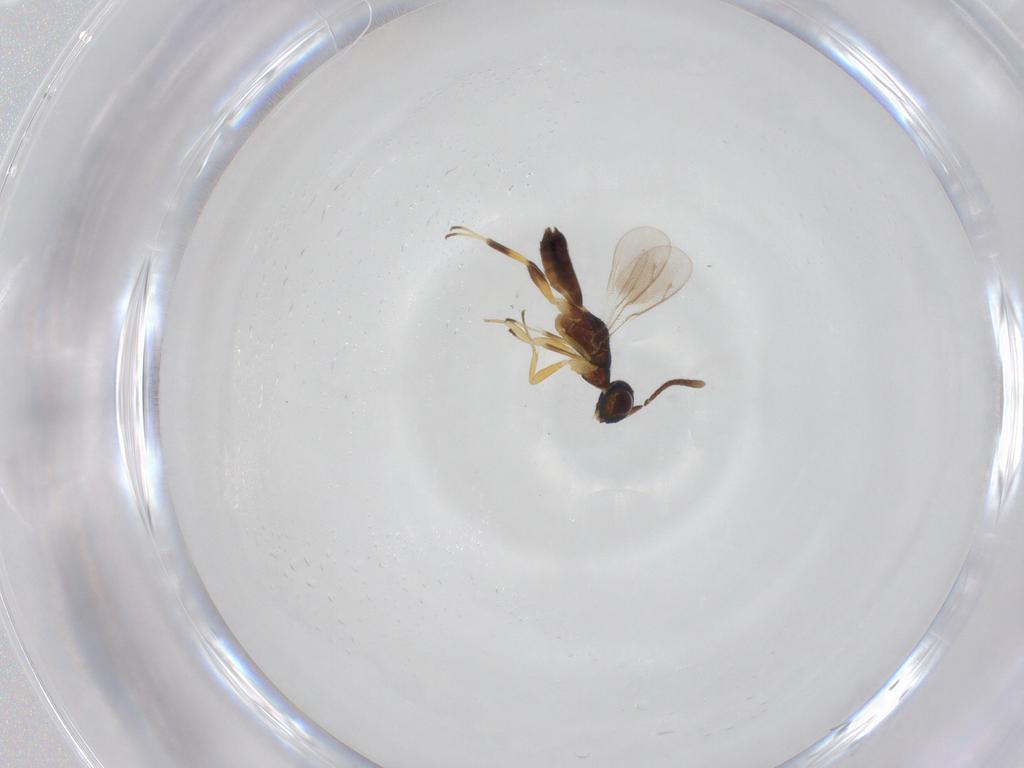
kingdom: Animalia
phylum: Arthropoda
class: Insecta
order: Hymenoptera
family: Eupelmidae
